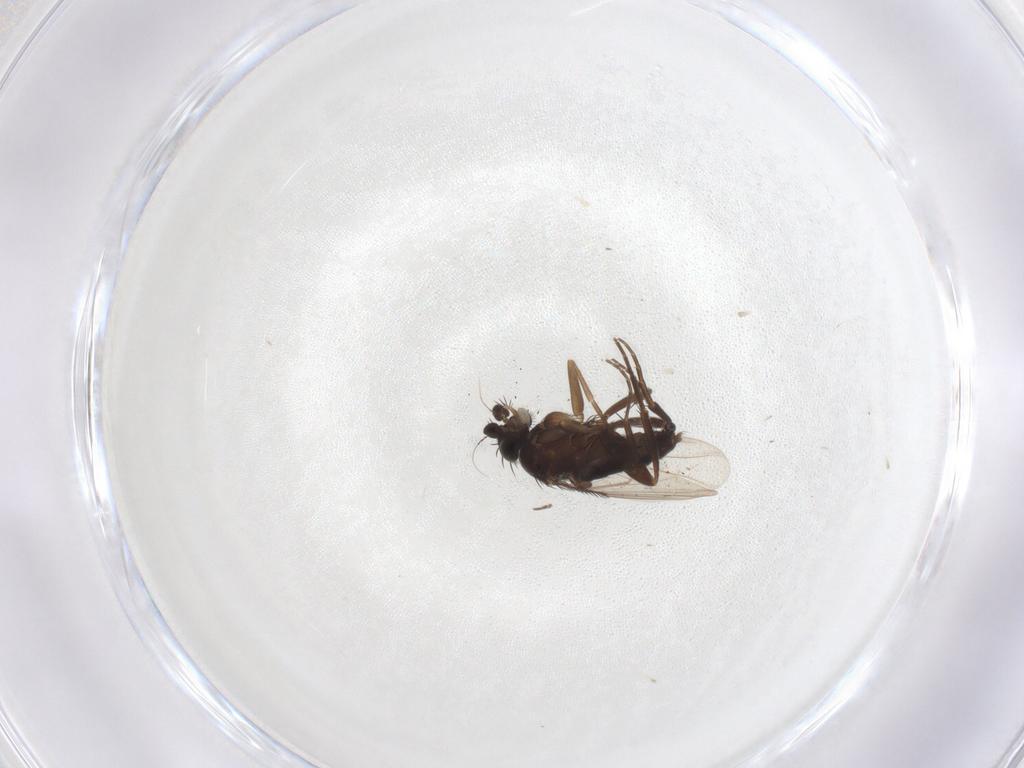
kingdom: Animalia
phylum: Arthropoda
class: Insecta
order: Diptera
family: Phoridae
